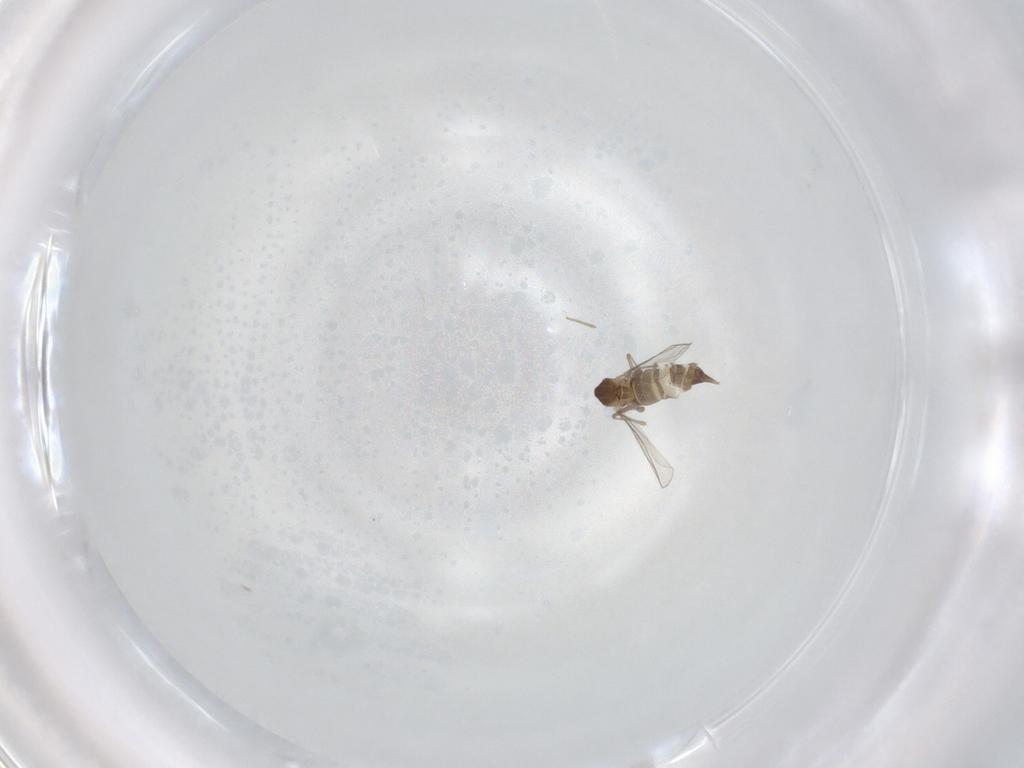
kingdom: Animalia
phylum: Arthropoda
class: Insecta
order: Diptera
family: Chironomidae
